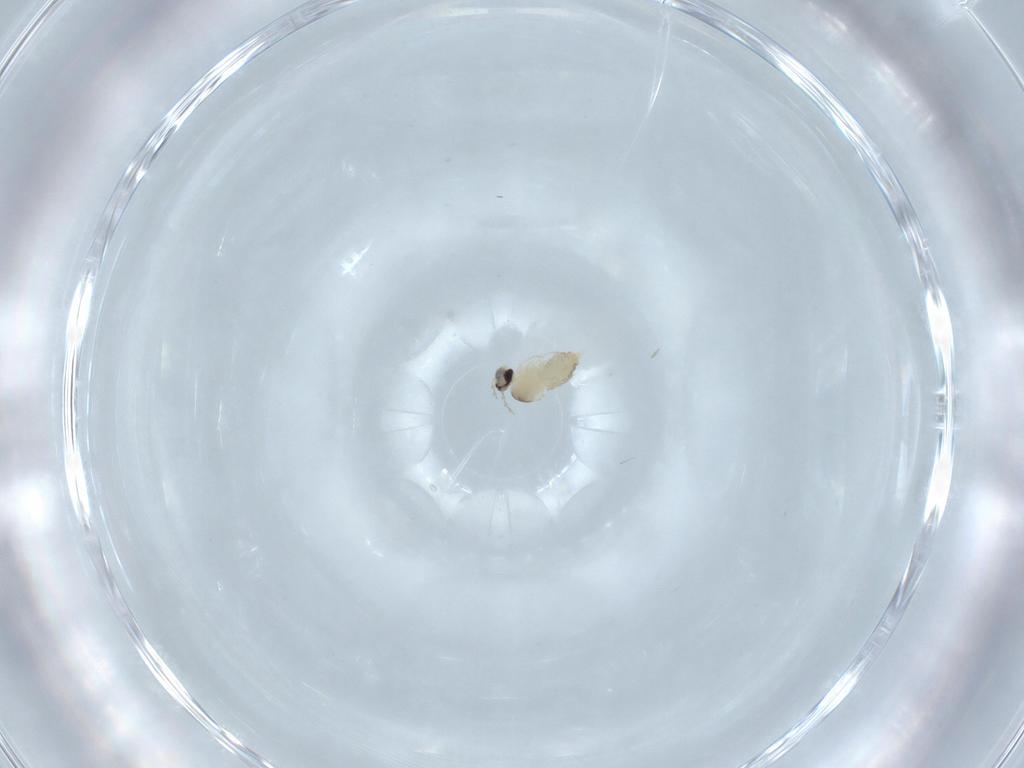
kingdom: Animalia
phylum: Arthropoda
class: Insecta
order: Diptera
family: Cecidomyiidae
